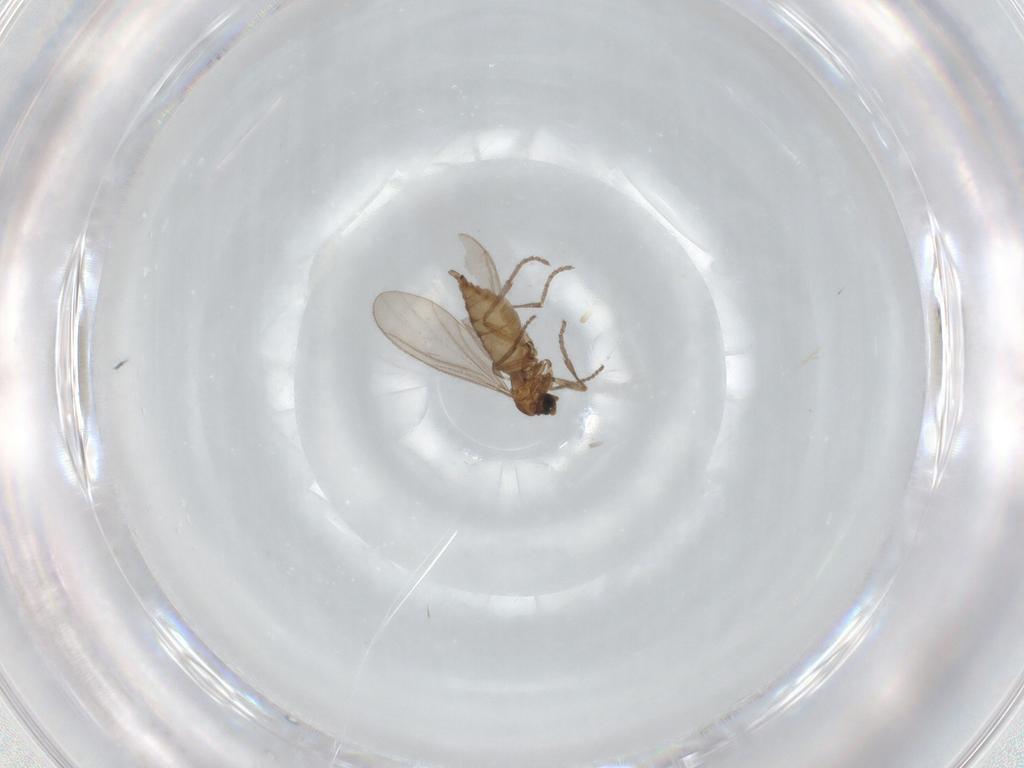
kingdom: Animalia
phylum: Arthropoda
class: Insecta
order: Diptera
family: Sciaridae
